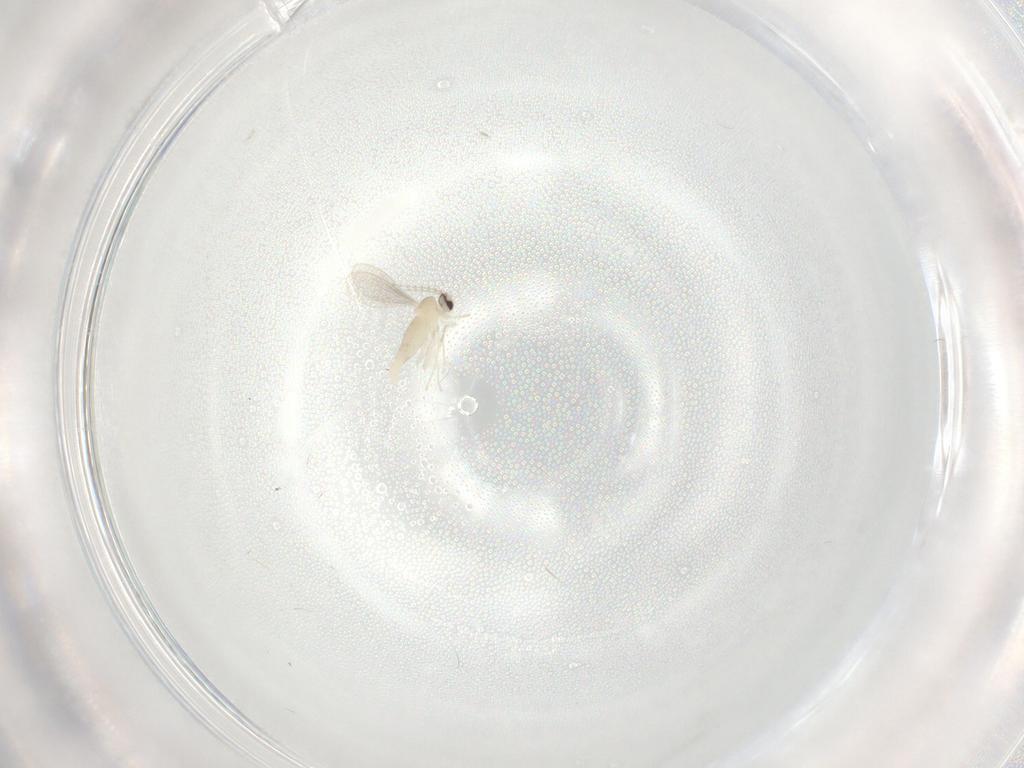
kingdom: Animalia
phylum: Arthropoda
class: Insecta
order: Diptera
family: Cecidomyiidae
